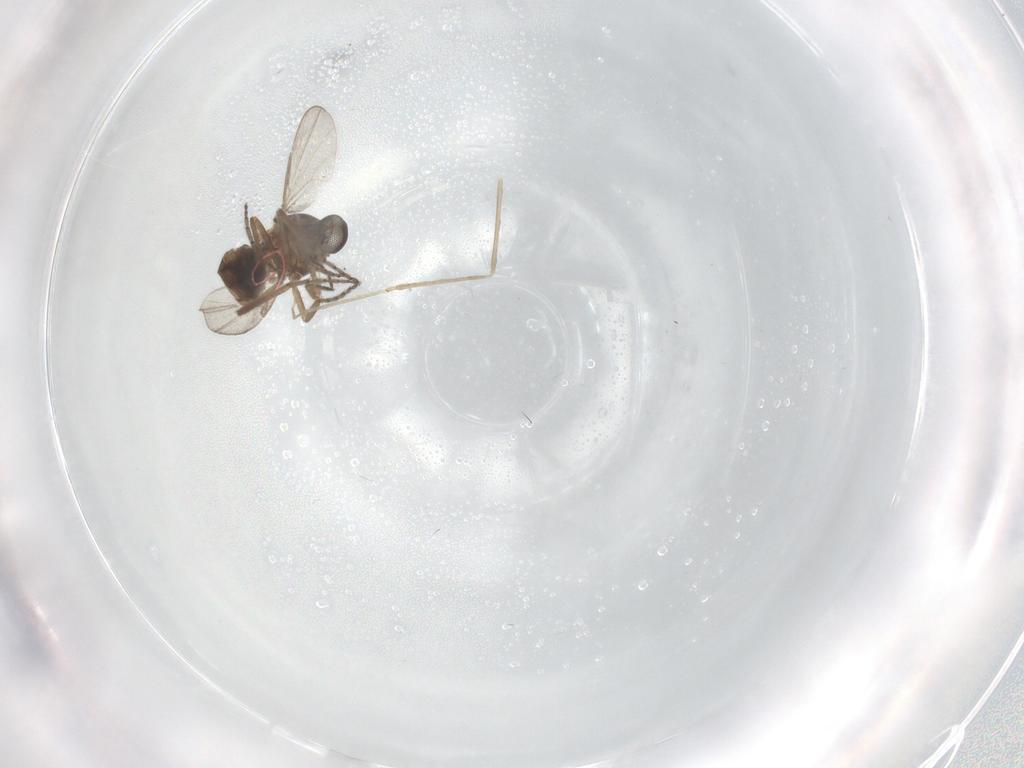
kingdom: Animalia
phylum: Arthropoda
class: Insecta
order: Diptera
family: Ceratopogonidae
